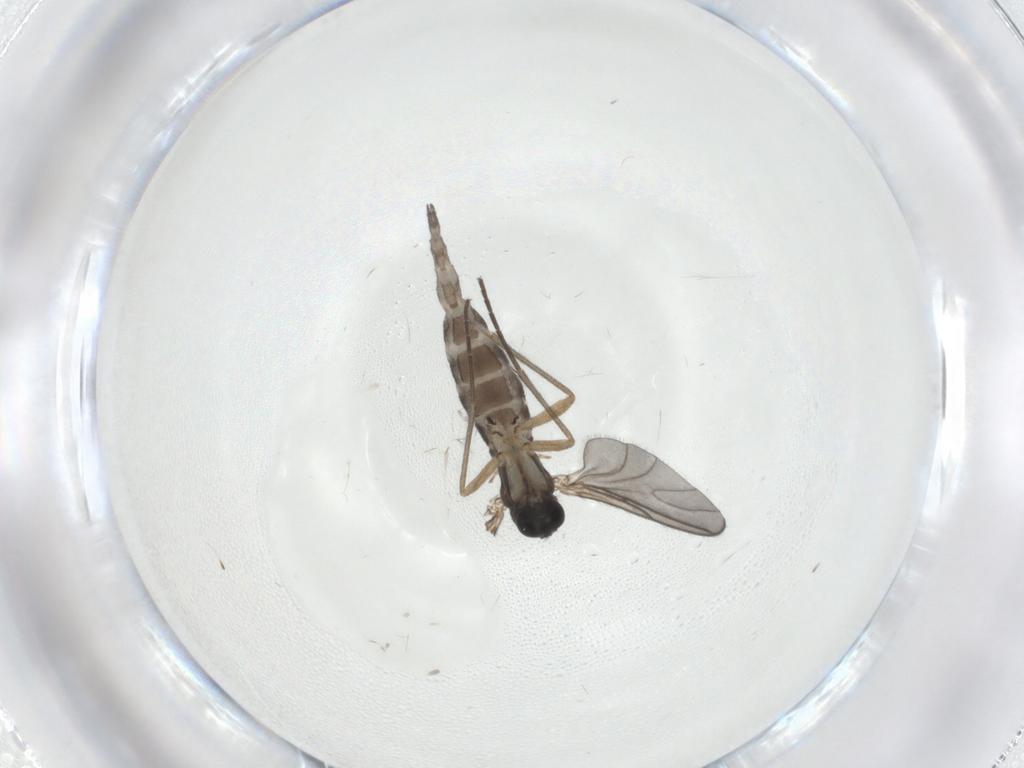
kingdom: Animalia
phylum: Arthropoda
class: Insecta
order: Diptera
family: Sciaridae
